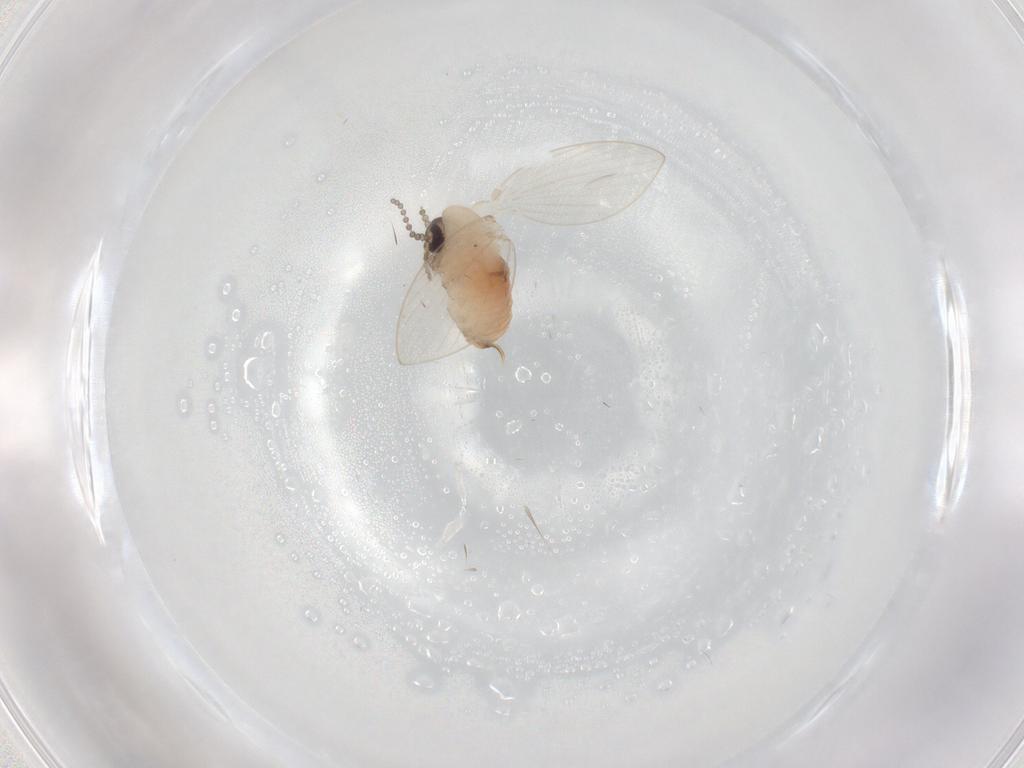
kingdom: Animalia
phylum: Arthropoda
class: Insecta
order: Diptera
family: Psychodidae
